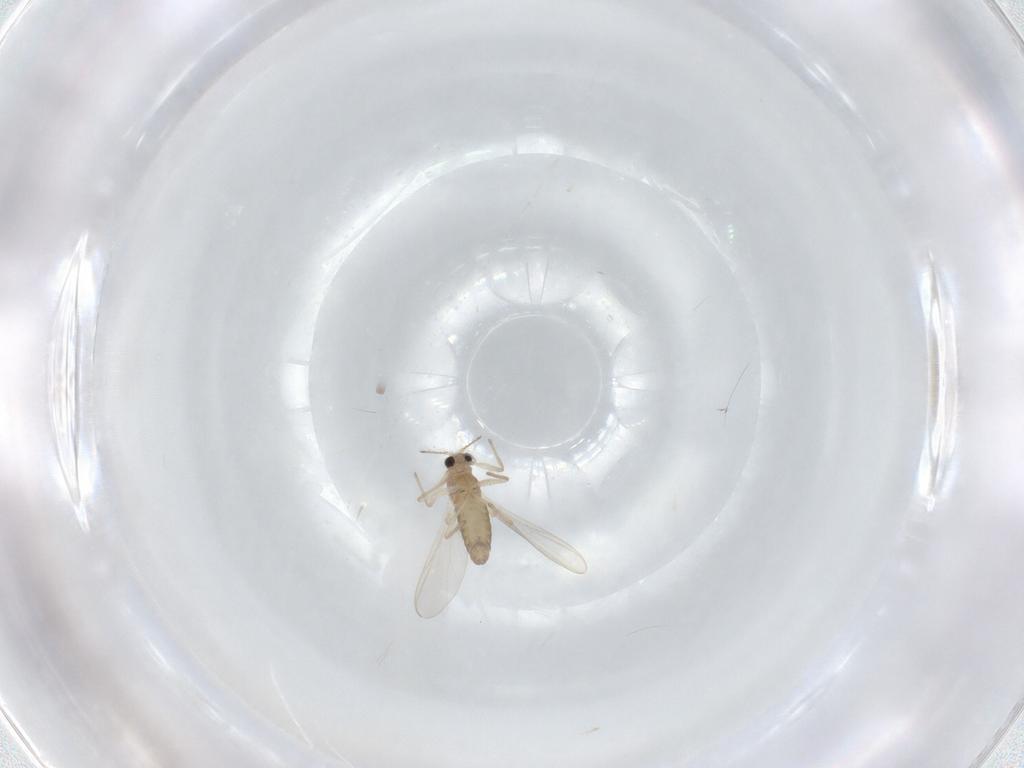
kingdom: Animalia
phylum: Arthropoda
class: Insecta
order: Diptera
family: Chironomidae
